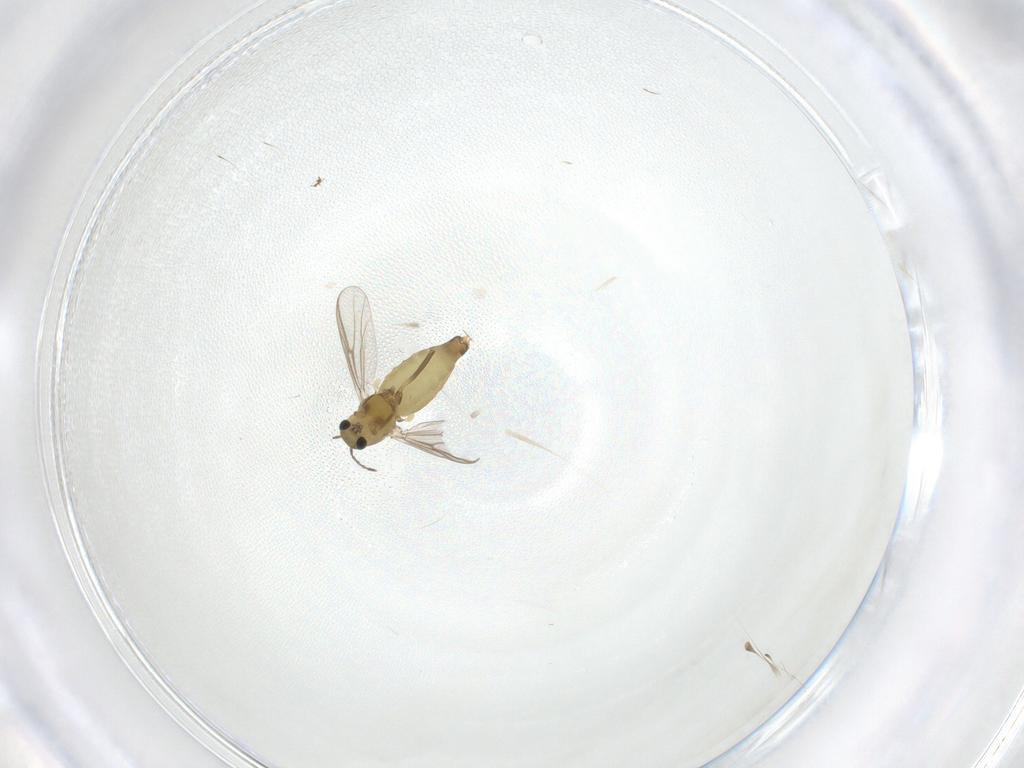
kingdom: Animalia
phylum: Arthropoda
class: Insecta
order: Diptera
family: Chironomidae
